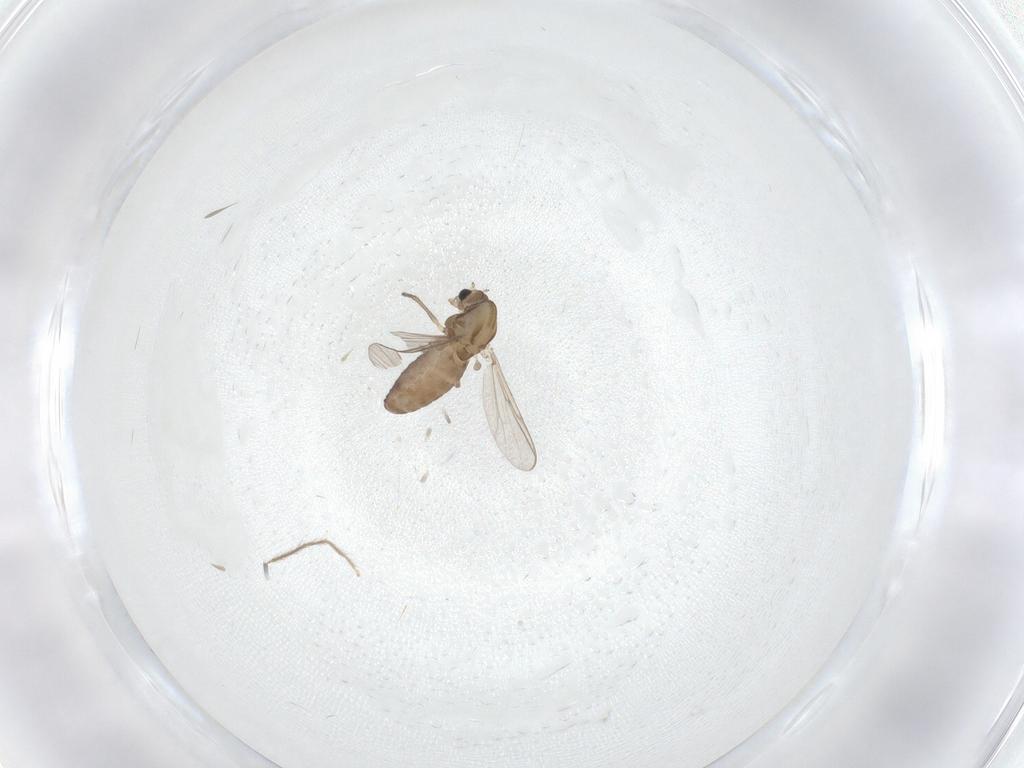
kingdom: Animalia
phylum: Arthropoda
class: Insecta
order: Diptera
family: Chironomidae
